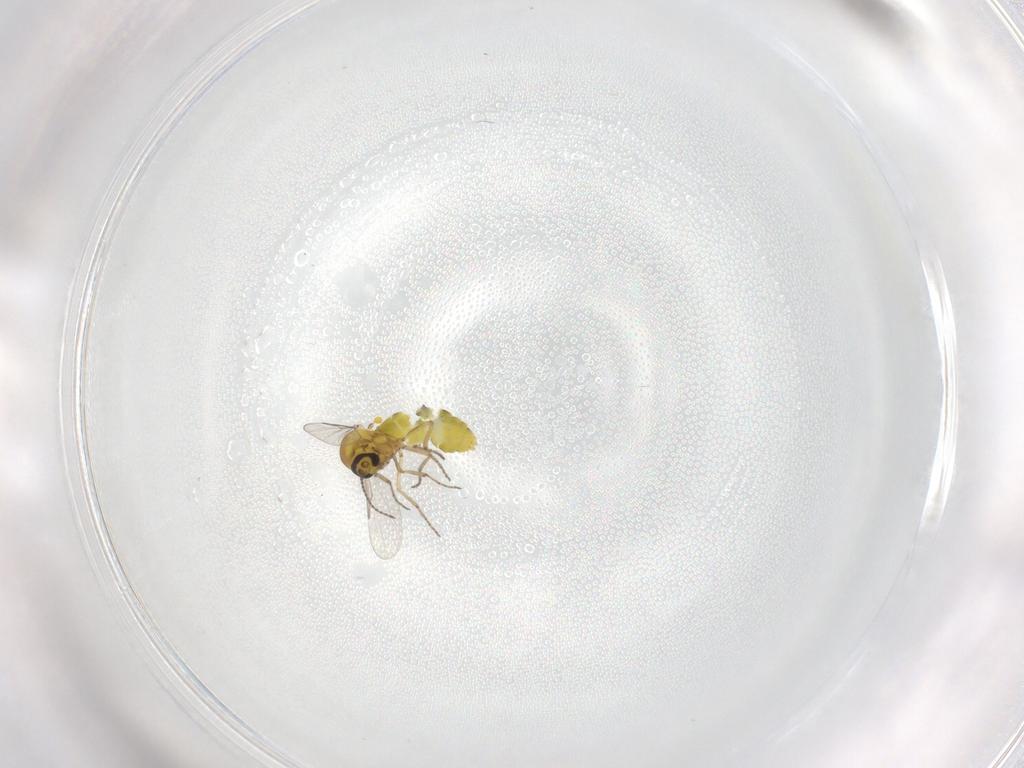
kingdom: Animalia
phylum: Arthropoda
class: Insecta
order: Diptera
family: Ceratopogonidae
